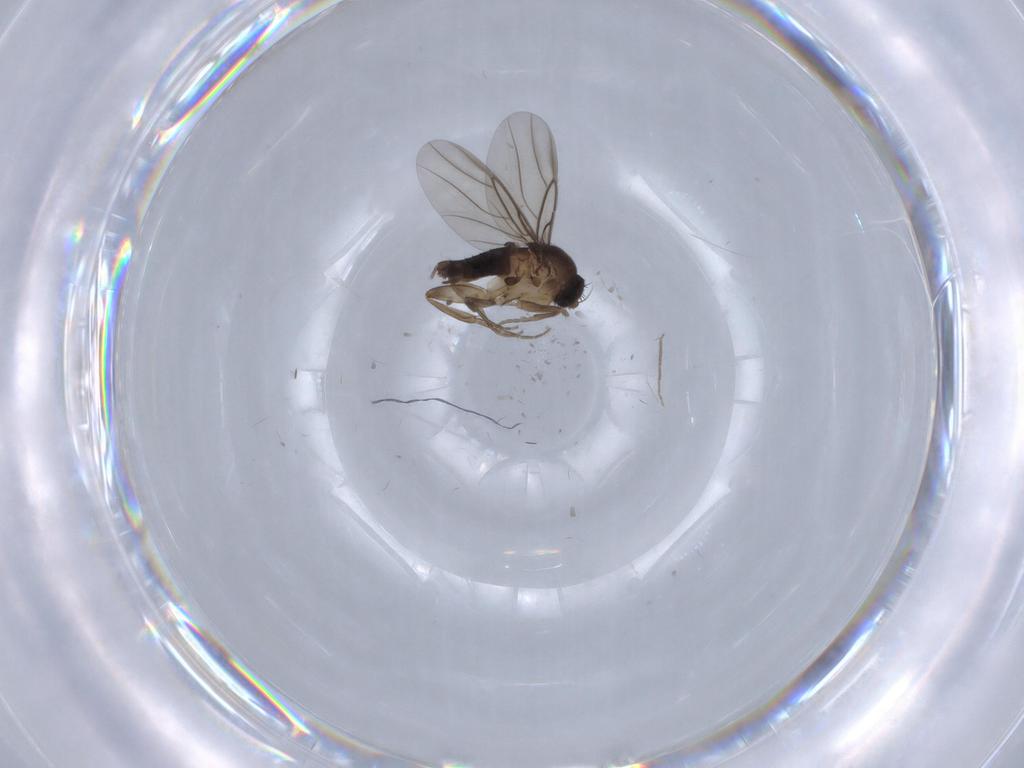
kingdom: Animalia
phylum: Arthropoda
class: Insecta
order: Diptera
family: Phoridae
